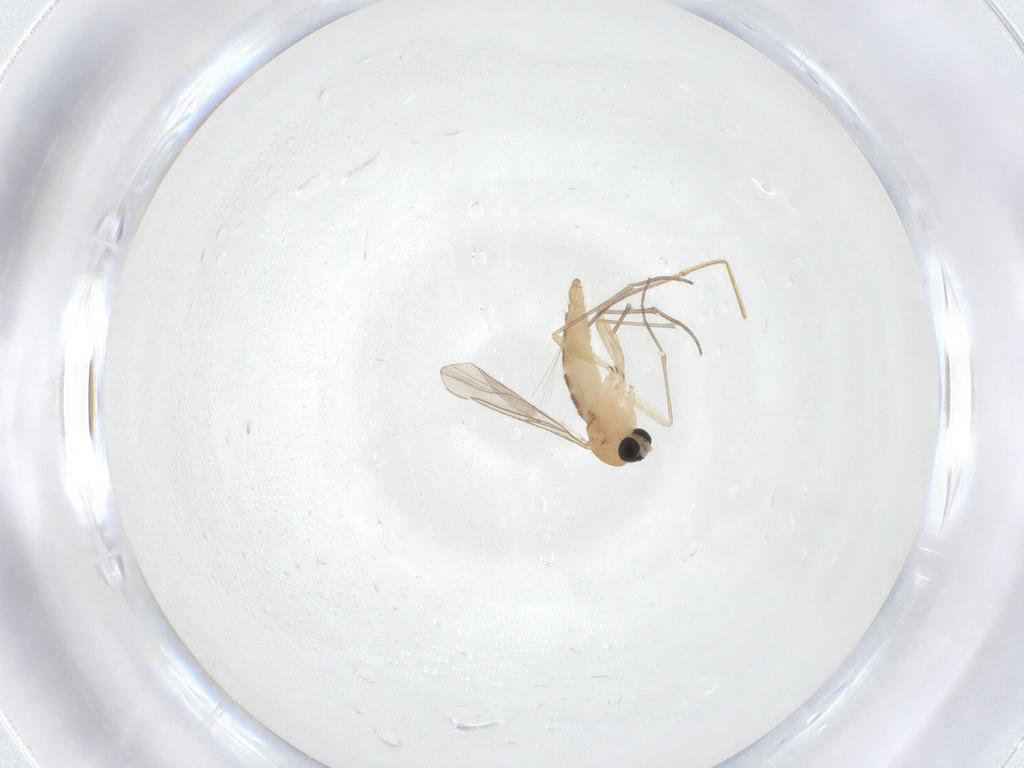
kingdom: Animalia
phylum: Arthropoda
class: Insecta
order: Diptera
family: Sciaridae
